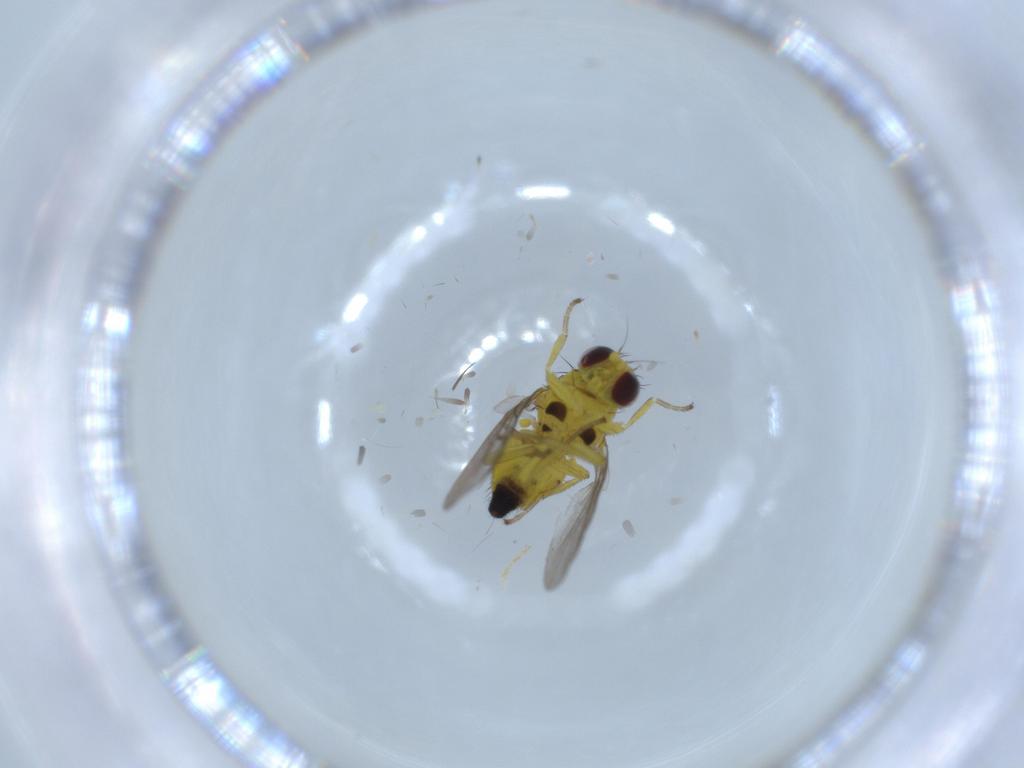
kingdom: Animalia
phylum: Arthropoda
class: Insecta
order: Diptera
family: Agromyzidae
